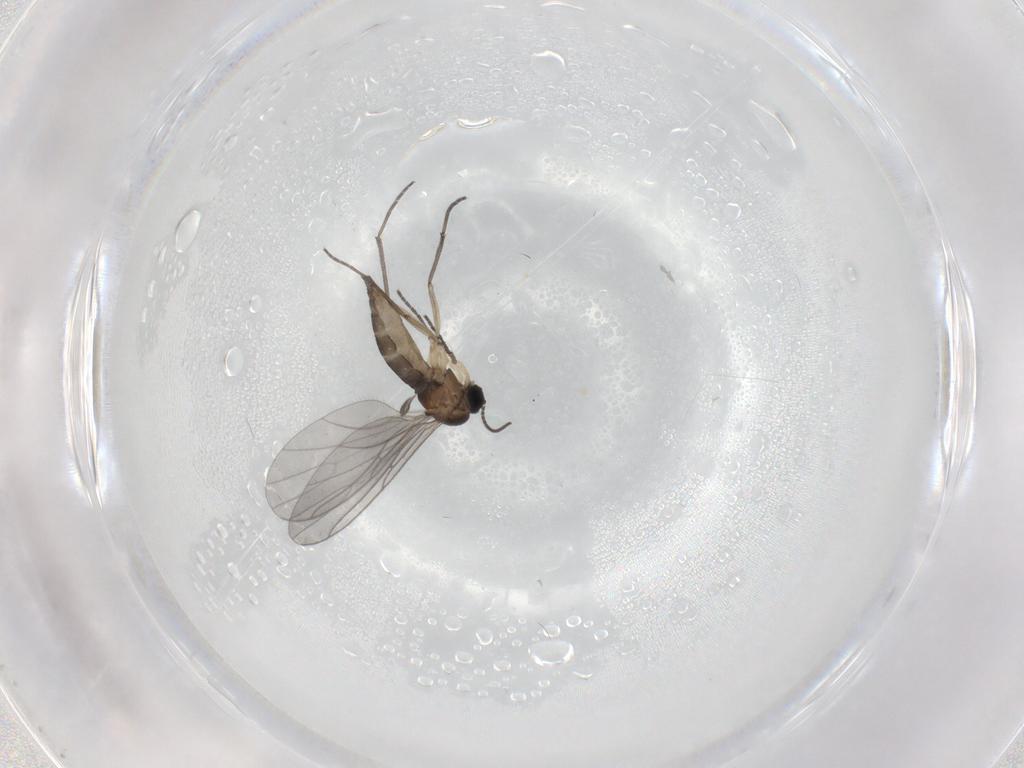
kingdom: Animalia
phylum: Arthropoda
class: Insecta
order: Diptera
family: Sciaridae
